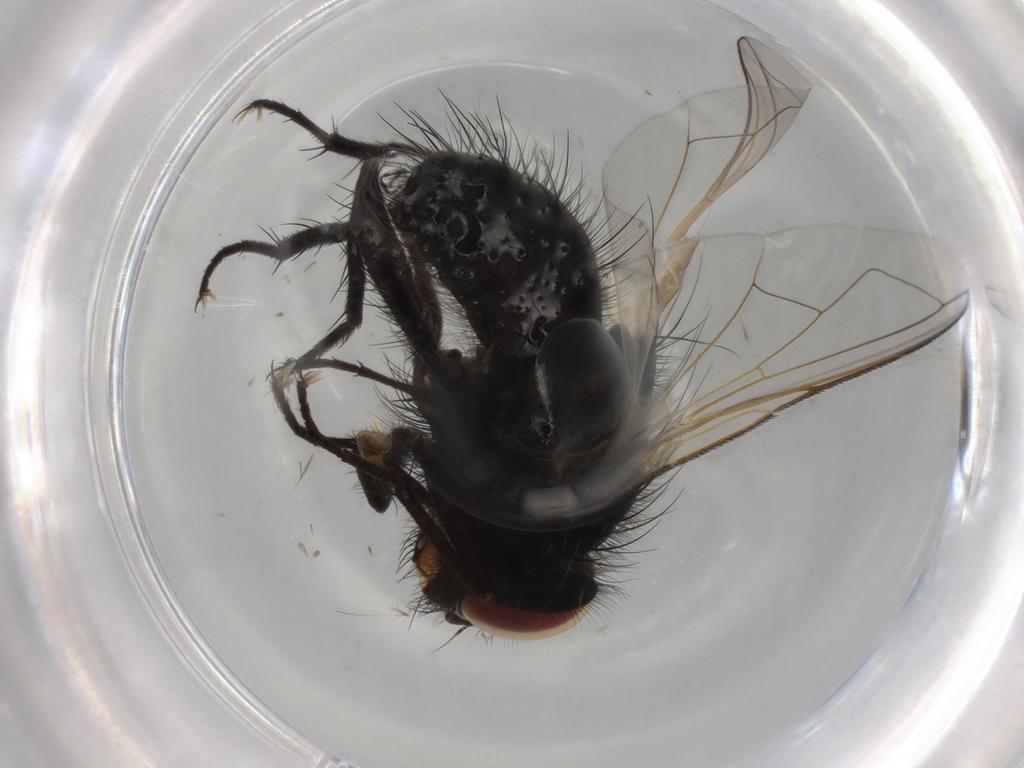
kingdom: Animalia
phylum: Arthropoda
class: Insecta
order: Diptera
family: Tachinidae
